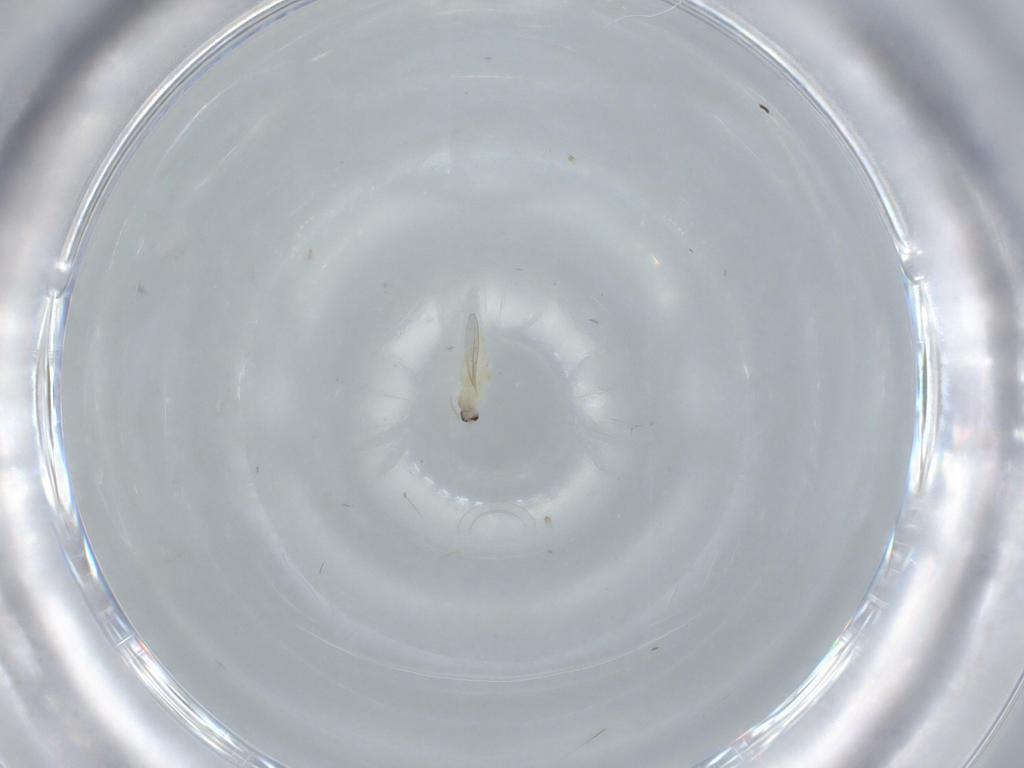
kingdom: Animalia
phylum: Arthropoda
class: Insecta
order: Diptera
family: Cecidomyiidae
